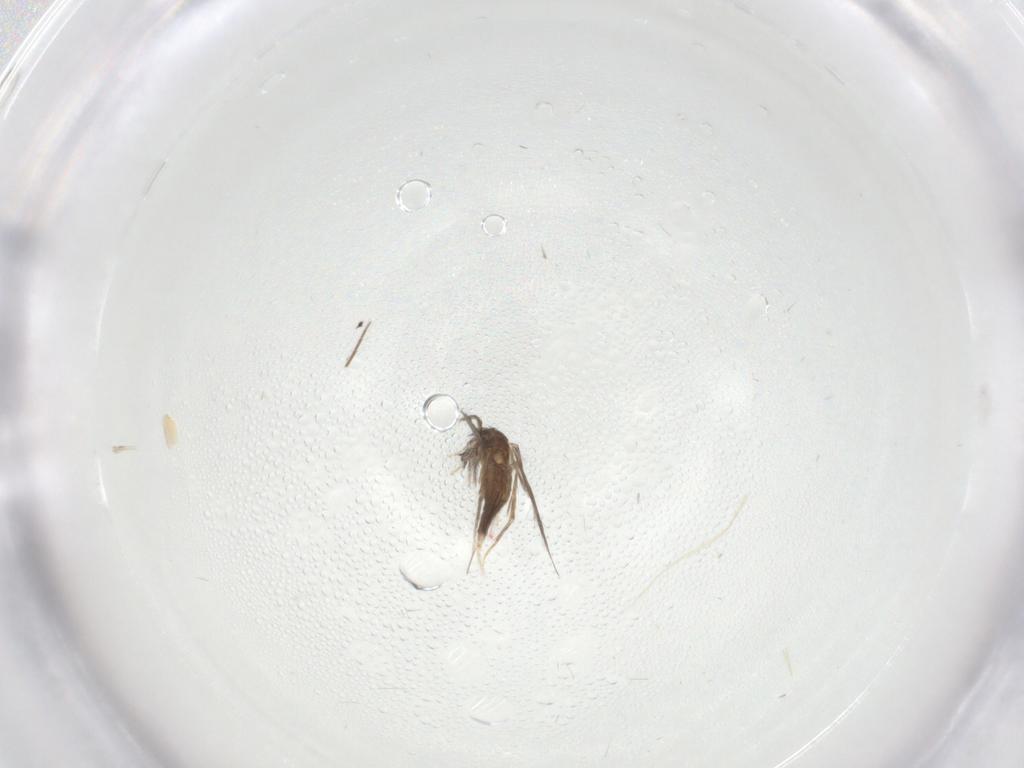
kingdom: Animalia
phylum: Arthropoda
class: Insecta
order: Diptera
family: Phoridae
